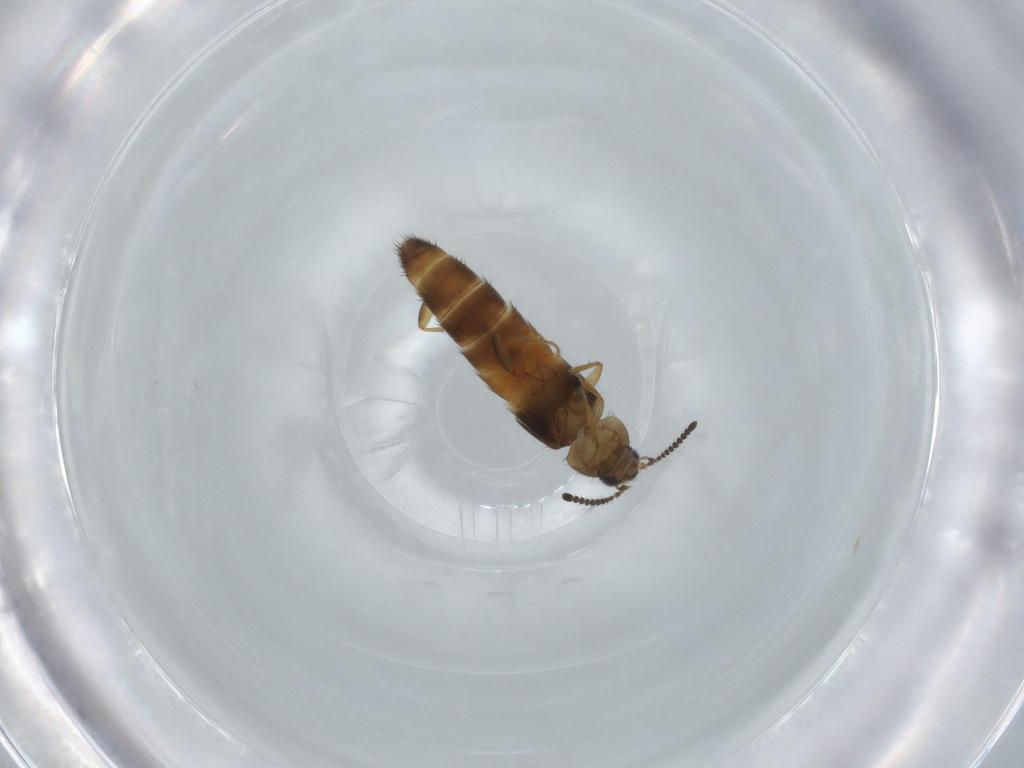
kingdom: Animalia
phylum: Arthropoda
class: Insecta
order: Coleoptera
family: Staphylinidae
